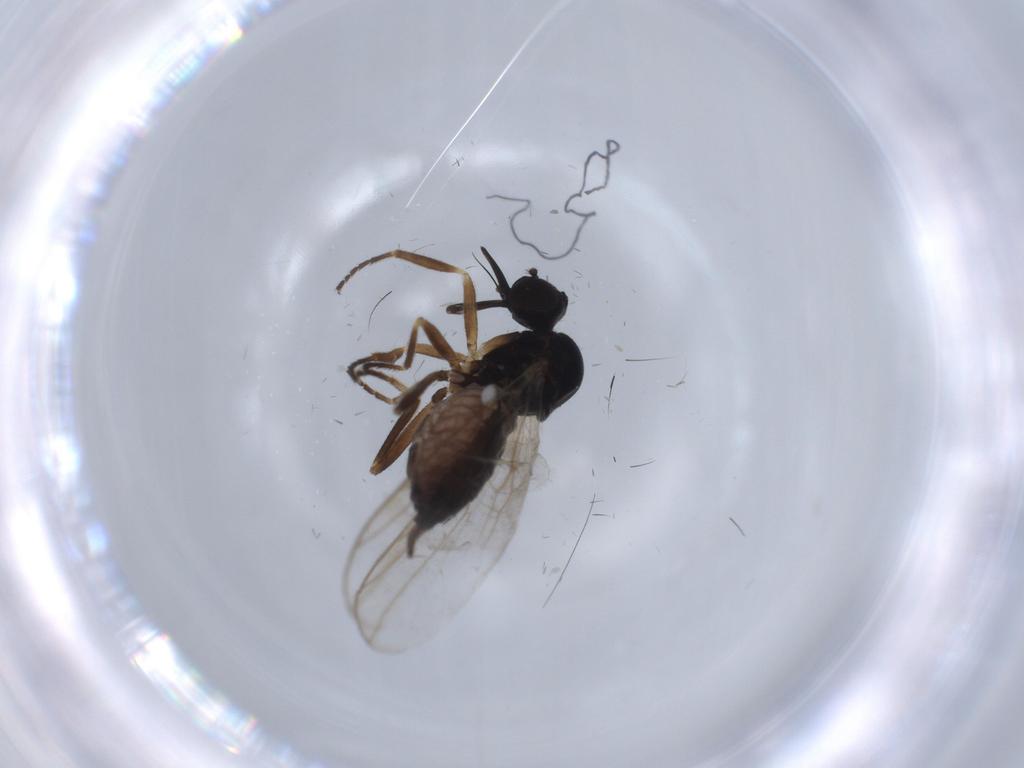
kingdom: Animalia
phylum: Arthropoda
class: Insecta
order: Diptera
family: Hybotidae
